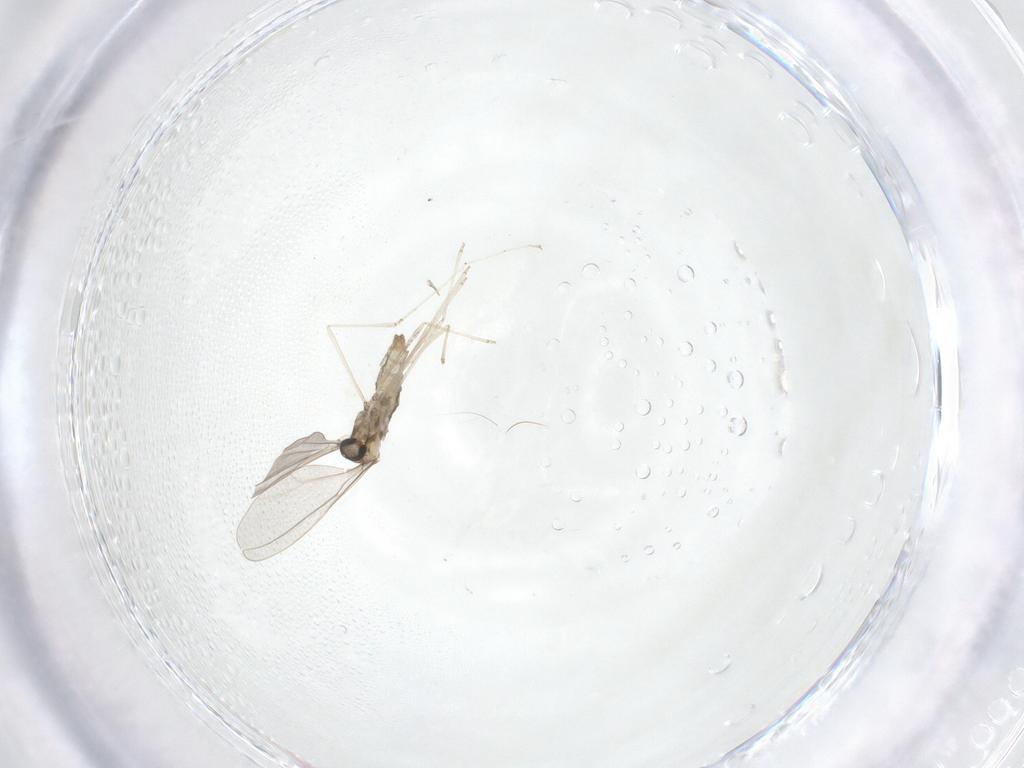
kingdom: Animalia
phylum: Arthropoda
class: Insecta
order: Diptera
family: Cecidomyiidae
